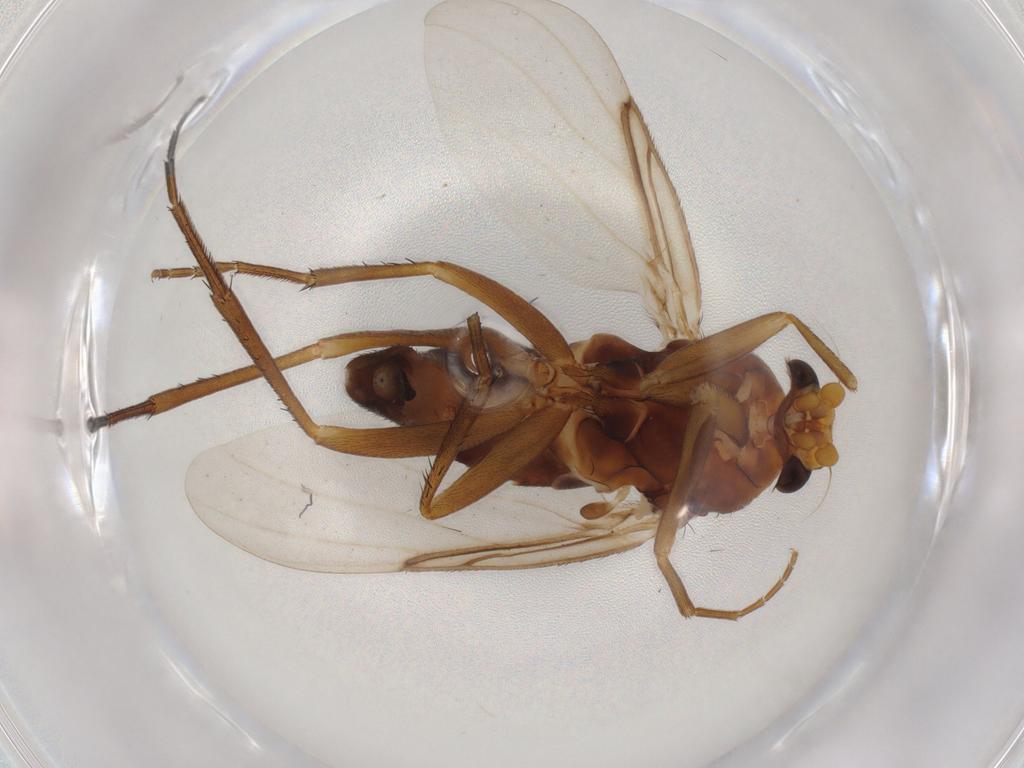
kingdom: Animalia
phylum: Arthropoda
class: Insecta
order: Diptera
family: Phoridae
